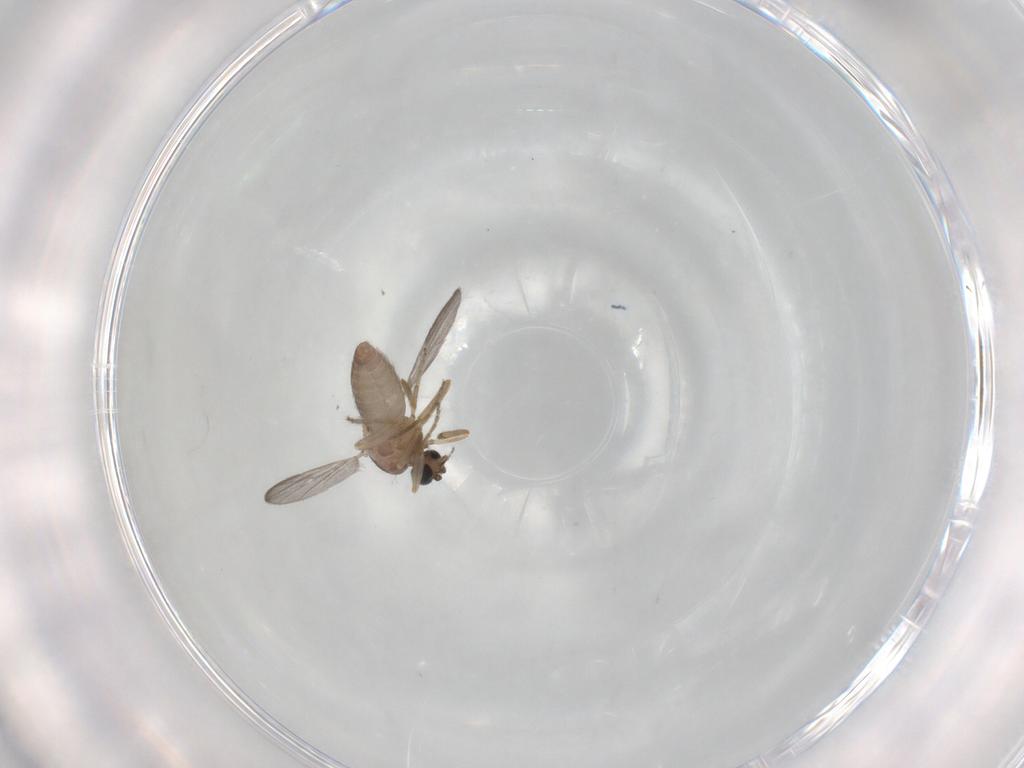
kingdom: Animalia
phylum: Arthropoda
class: Insecta
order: Diptera
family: Ceratopogonidae
